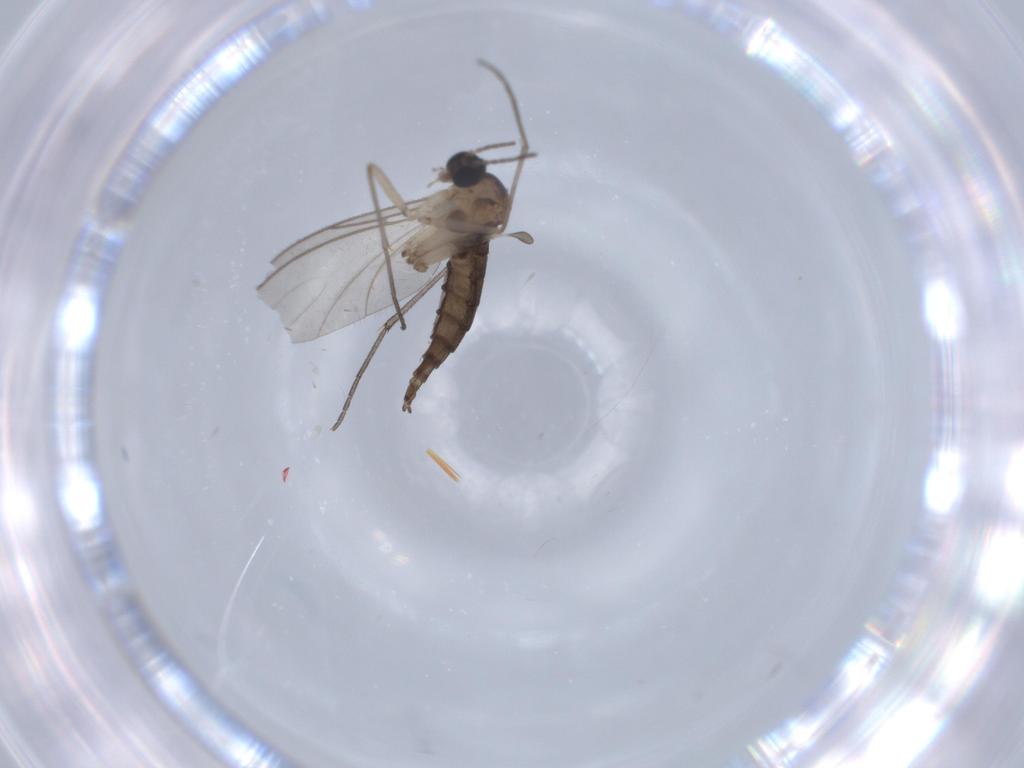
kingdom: Animalia
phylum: Arthropoda
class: Insecta
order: Diptera
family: Sciaridae
